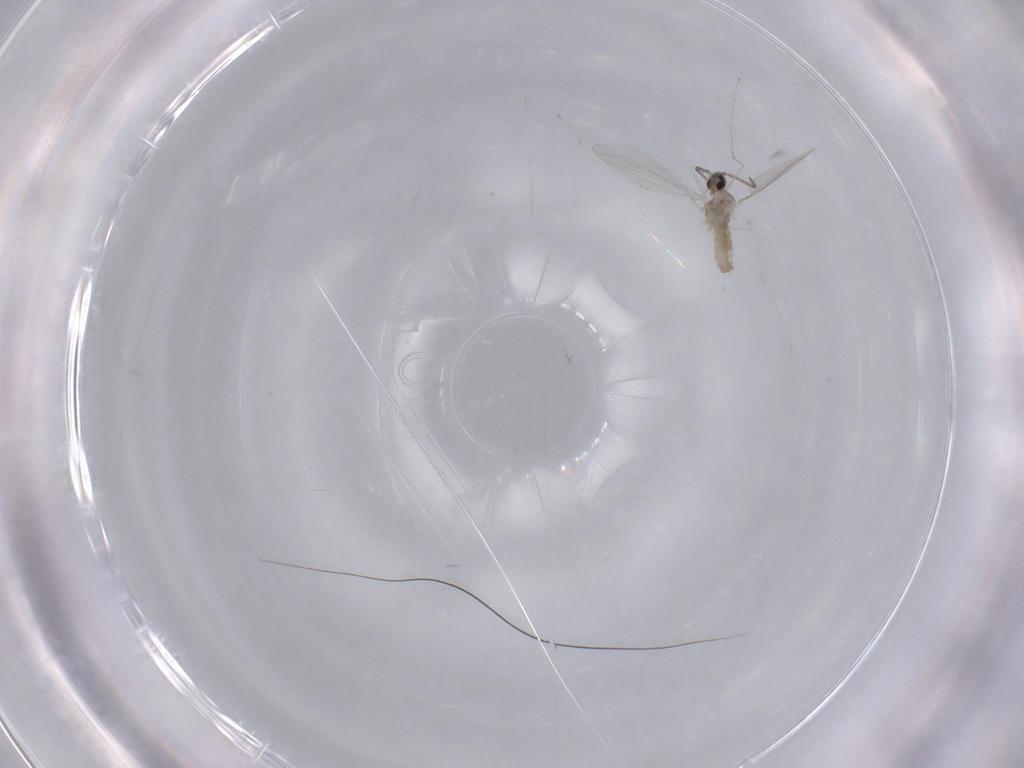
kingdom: Animalia
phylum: Arthropoda
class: Insecta
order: Diptera
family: Cecidomyiidae
